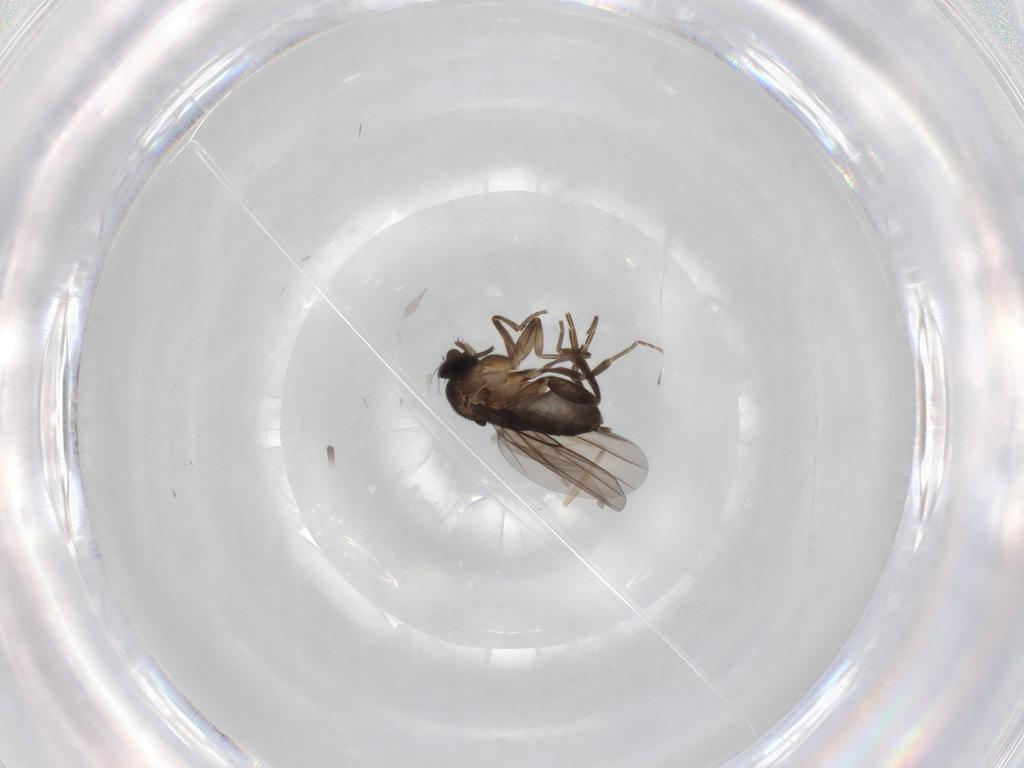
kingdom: Animalia
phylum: Arthropoda
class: Insecta
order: Diptera
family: Phoridae
